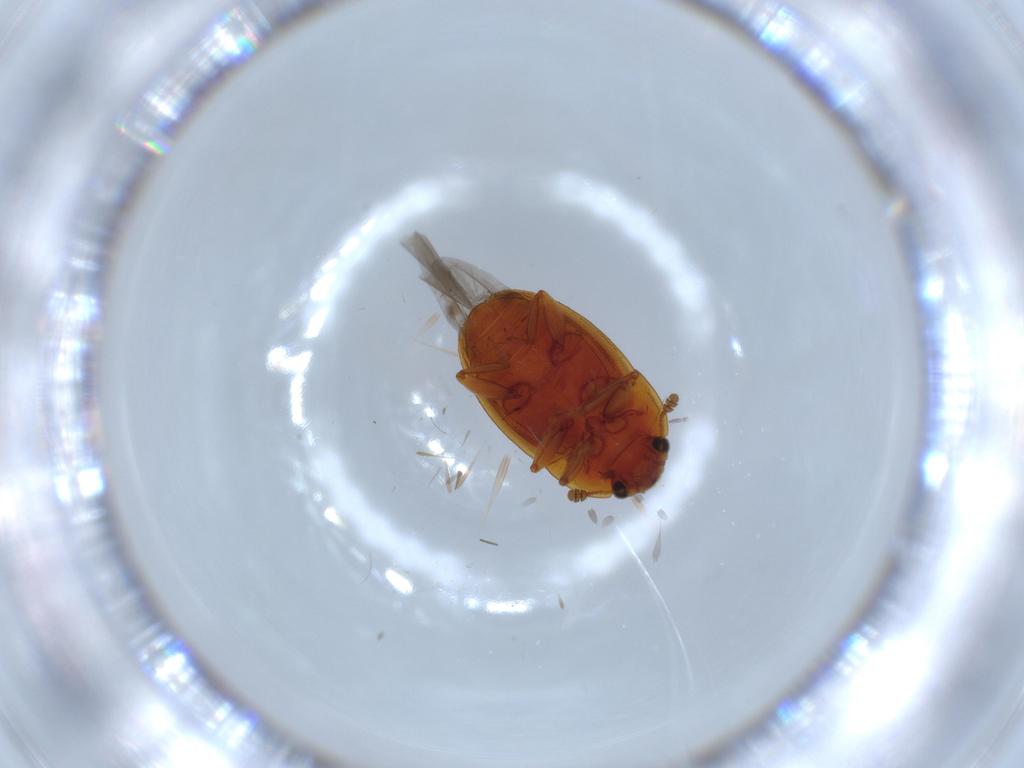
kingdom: Animalia
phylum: Arthropoda
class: Insecta
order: Coleoptera
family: Nitidulidae
